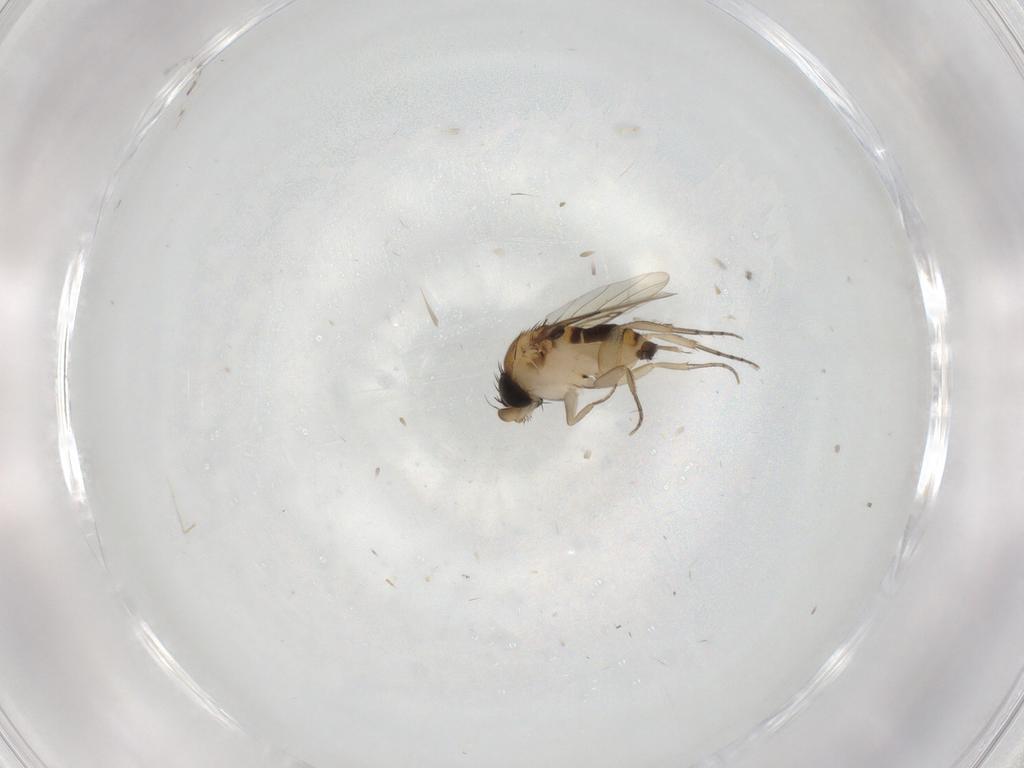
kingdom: Animalia
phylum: Arthropoda
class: Insecta
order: Diptera
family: Phoridae
